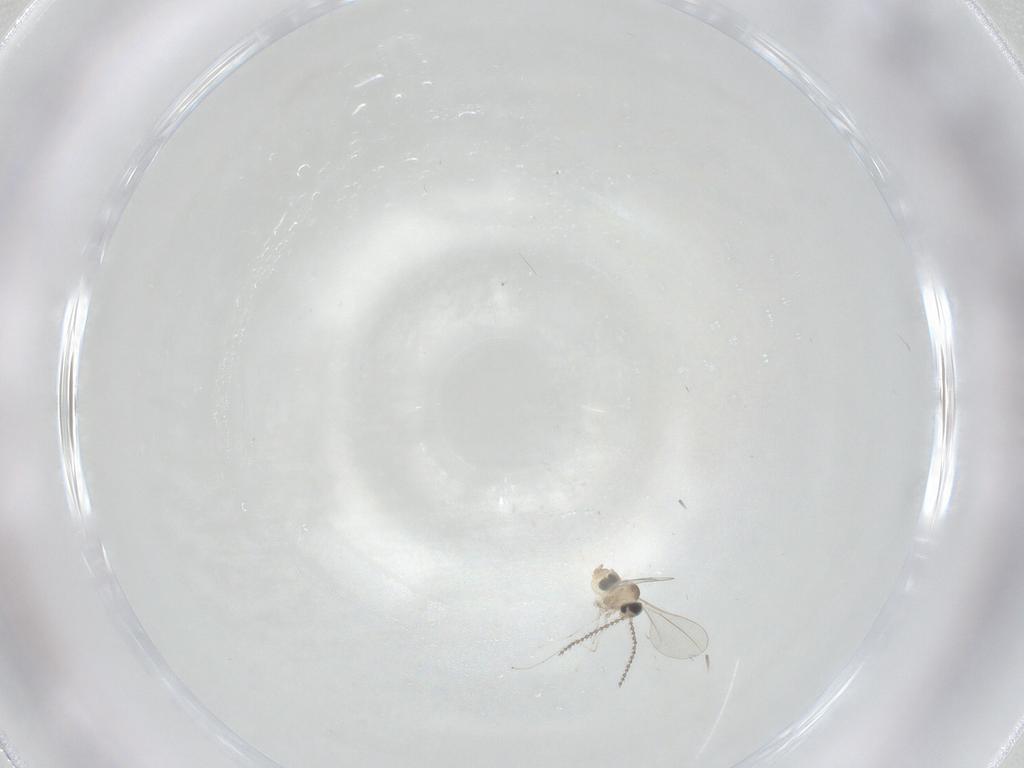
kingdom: Animalia
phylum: Arthropoda
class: Insecta
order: Diptera
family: Cecidomyiidae
